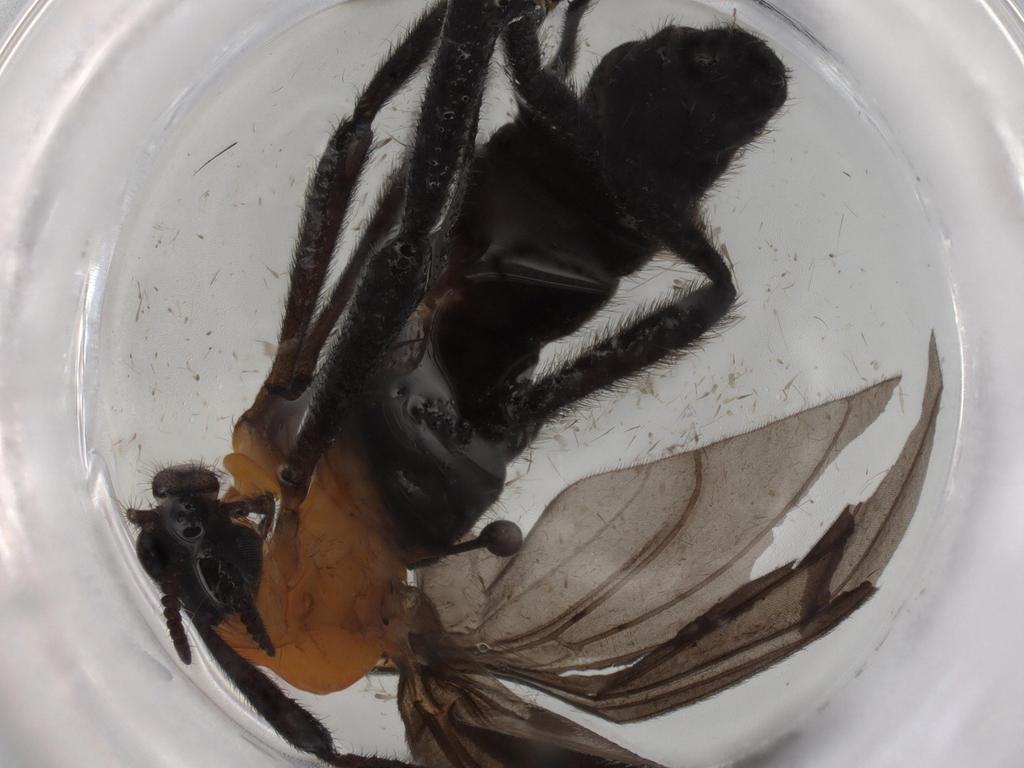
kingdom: Animalia
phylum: Arthropoda
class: Insecta
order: Diptera
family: Bibionidae
